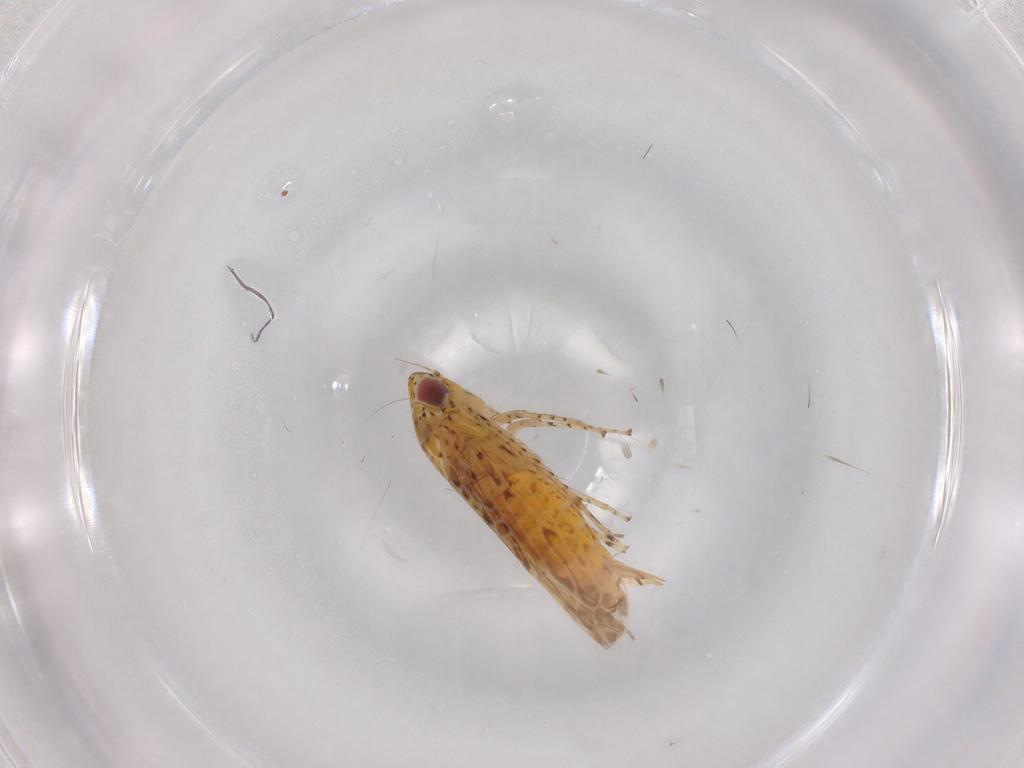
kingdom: Animalia
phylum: Arthropoda
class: Insecta
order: Hemiptera
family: Cicadellidae
